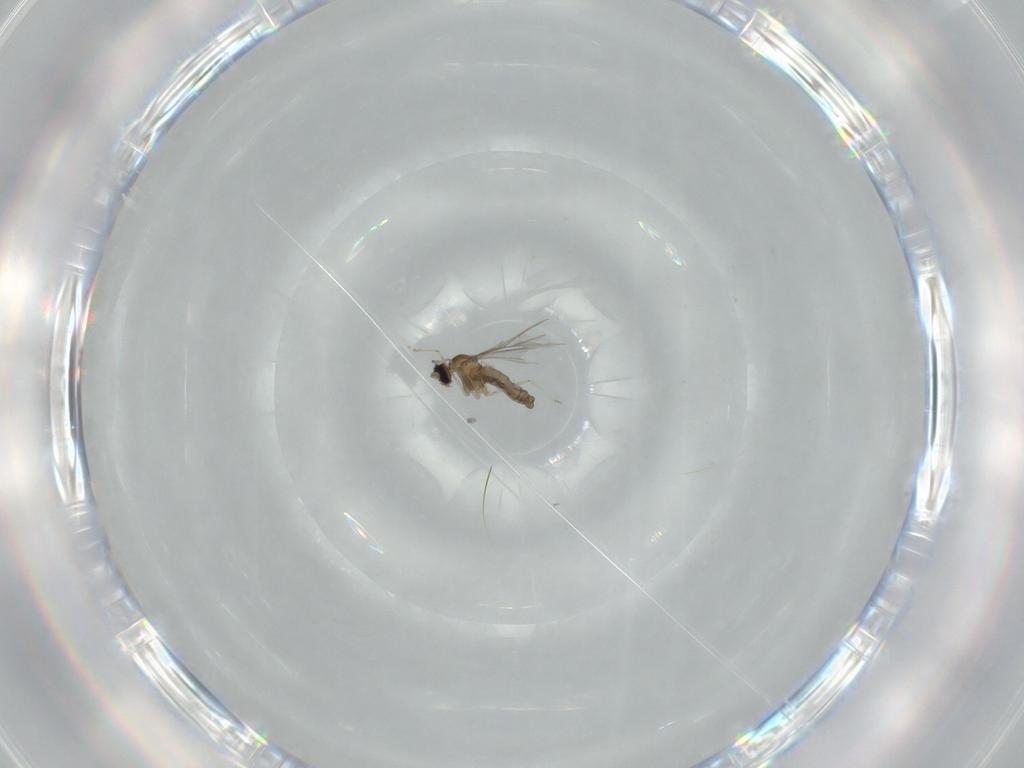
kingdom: Animalia
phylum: Arthropoda
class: Insecta
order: Diptera
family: Cecidomyiidae
